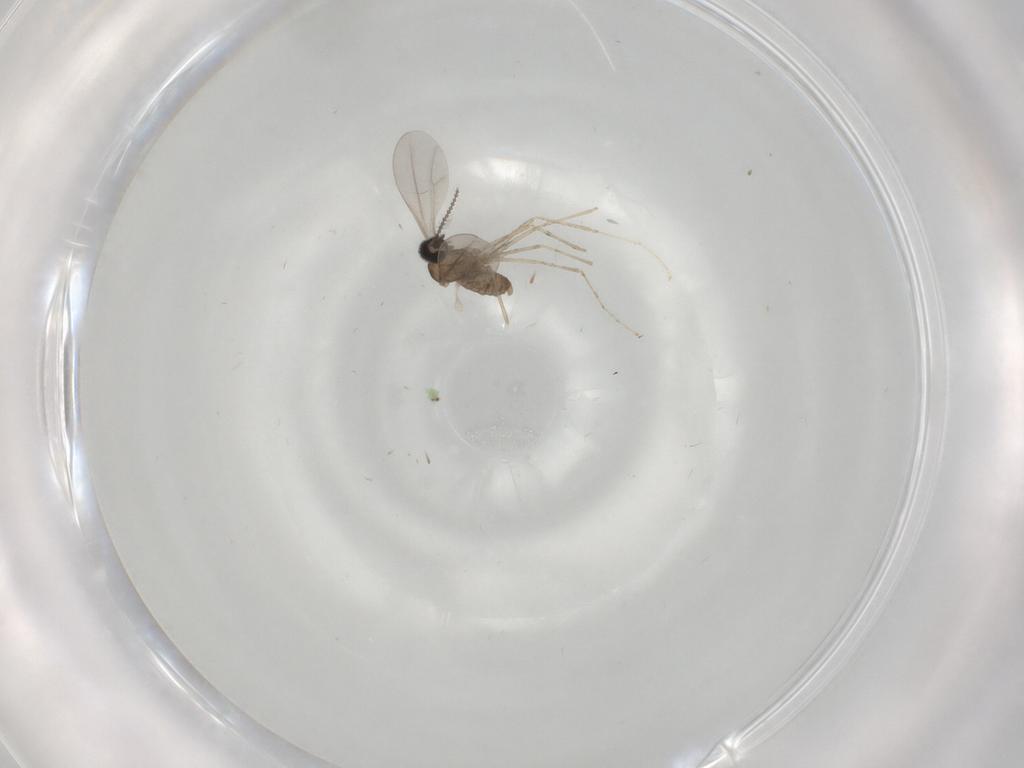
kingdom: Animalia
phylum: Arthropoda
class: Insecta
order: Diptera
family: Cecidomyiidae
